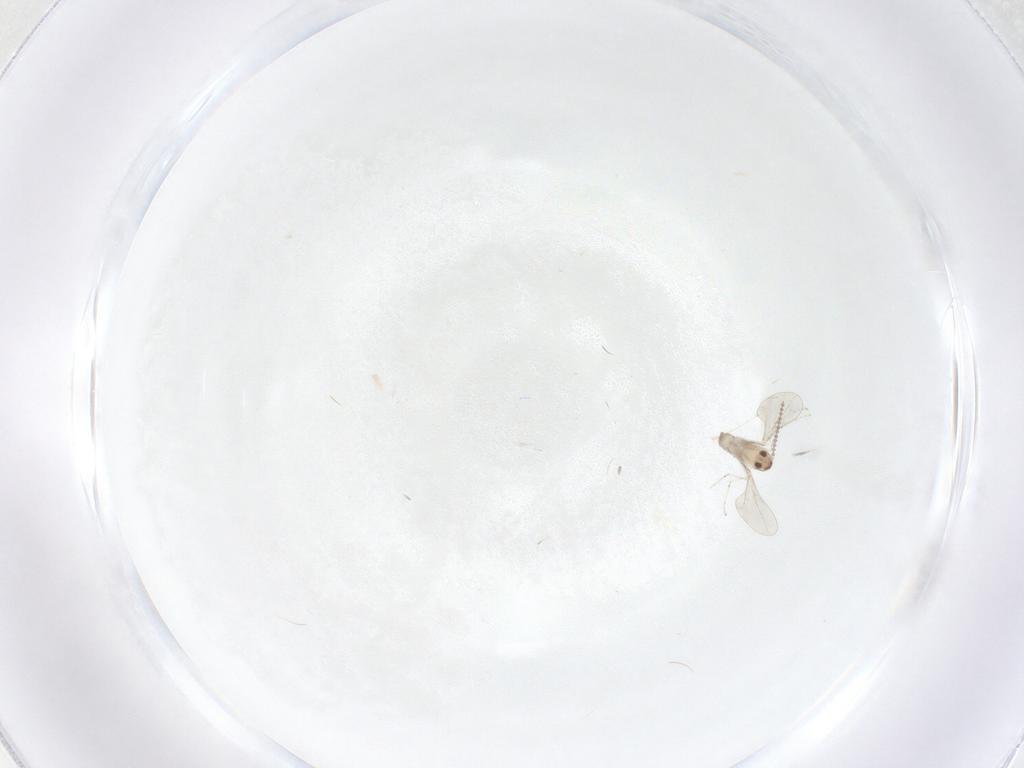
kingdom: Animalia
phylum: Arthropoda
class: Insecta
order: Diptera
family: Cecidomyiidae
